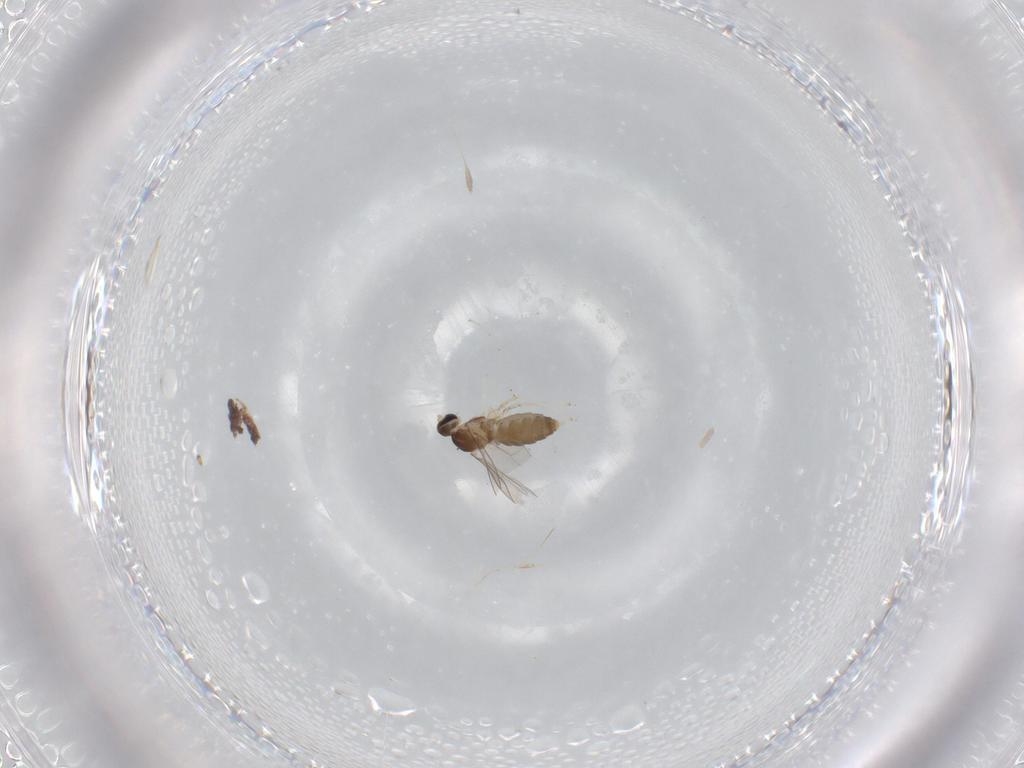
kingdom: Animalia
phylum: Arthropoda
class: Insecta
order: Diptera
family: Cecidomyiidae
